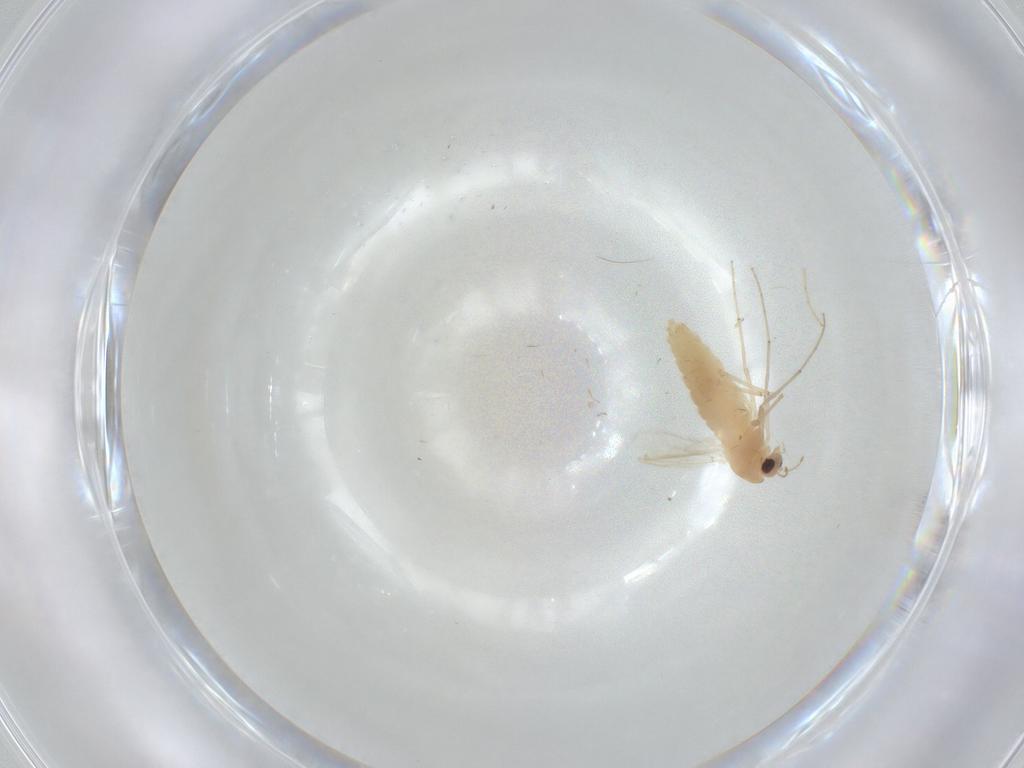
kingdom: Animalia
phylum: Arthropoda
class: Insecta
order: Diptera
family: Chironomidae
